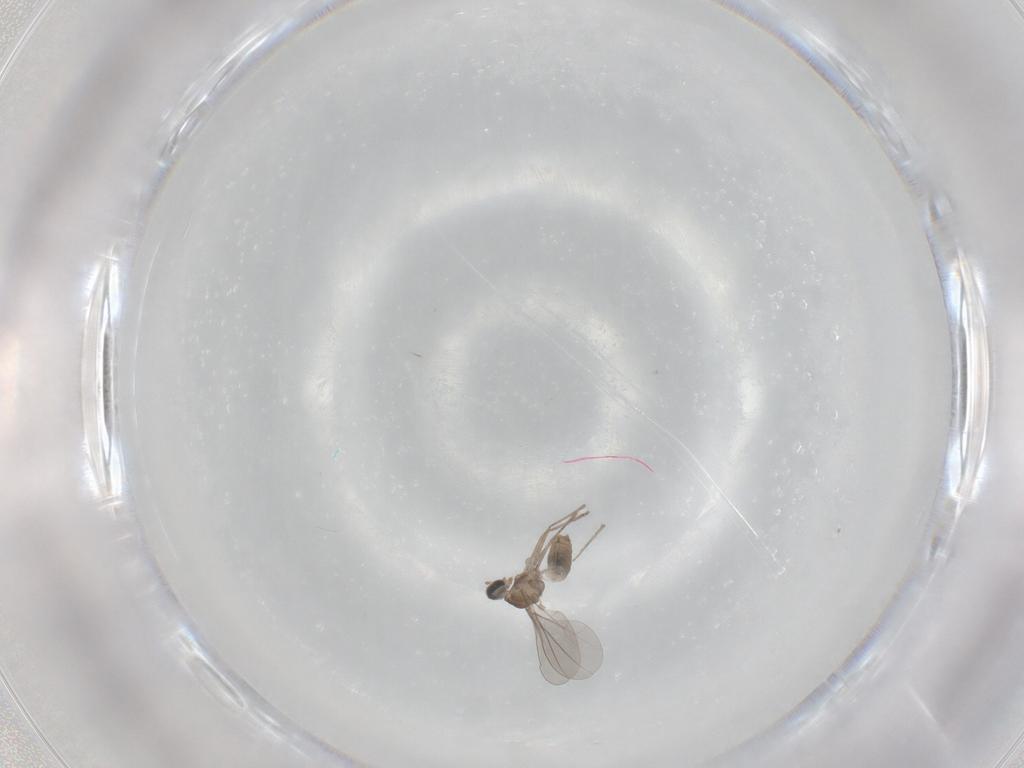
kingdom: Animalia
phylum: Arthropoda
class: Insecta
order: Diptera
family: Cecidomyiidae
